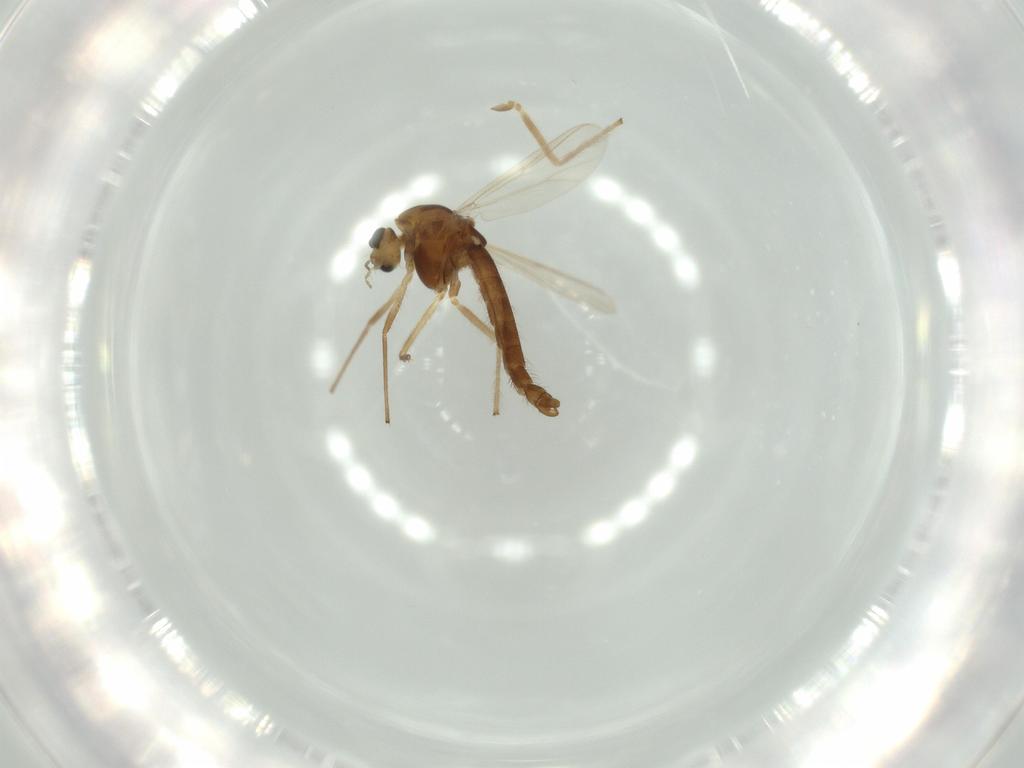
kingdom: Animalia
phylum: Arthropoda
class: Insecta
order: Diptera
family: Chironomidae
